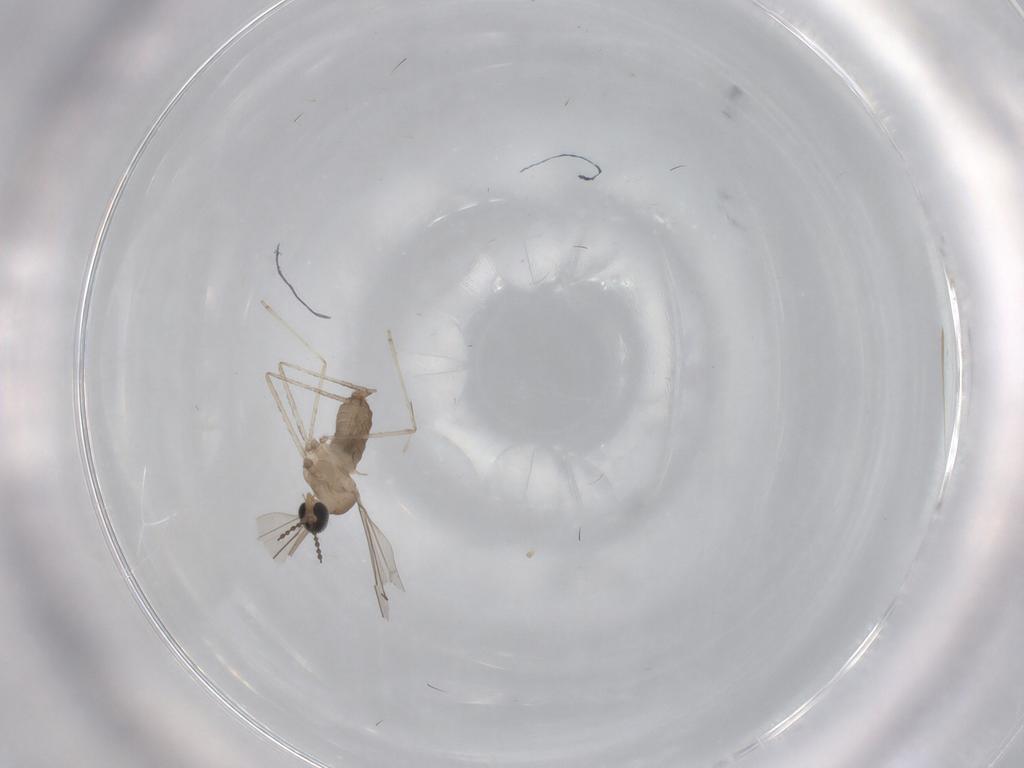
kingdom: Animalia
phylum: Arthropoda
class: Insecta
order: Diptera
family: Cecidomyiidae
